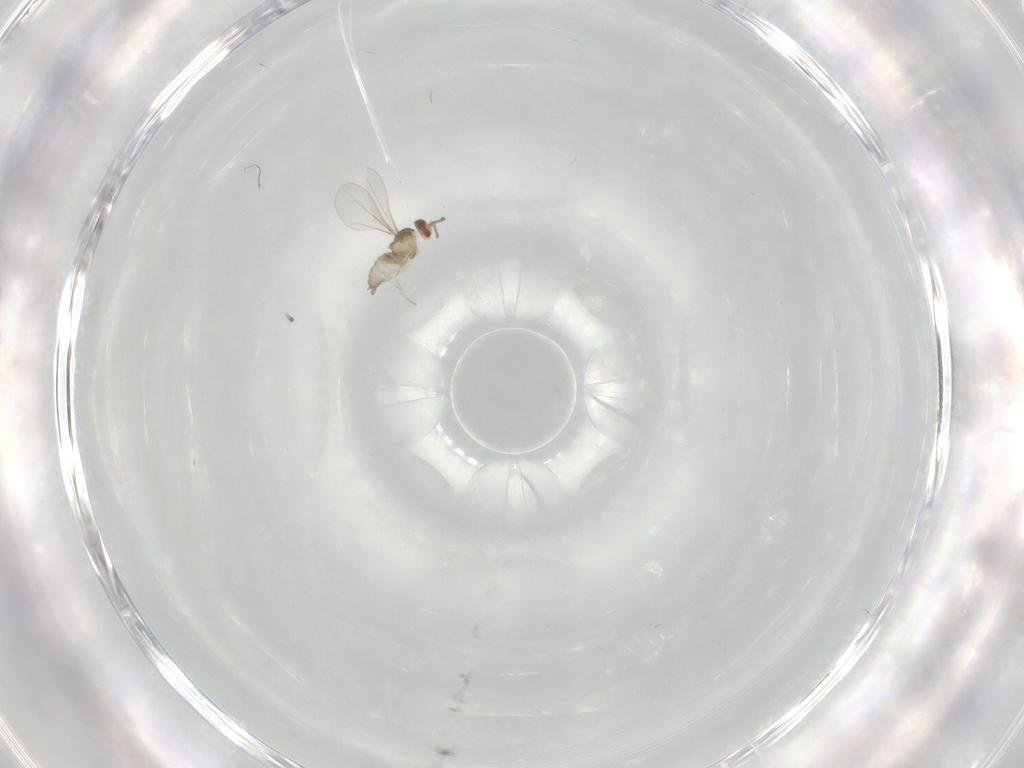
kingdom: Animalia
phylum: Arthropoda
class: Insecta
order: Diptera
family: Cecidomyiidae
